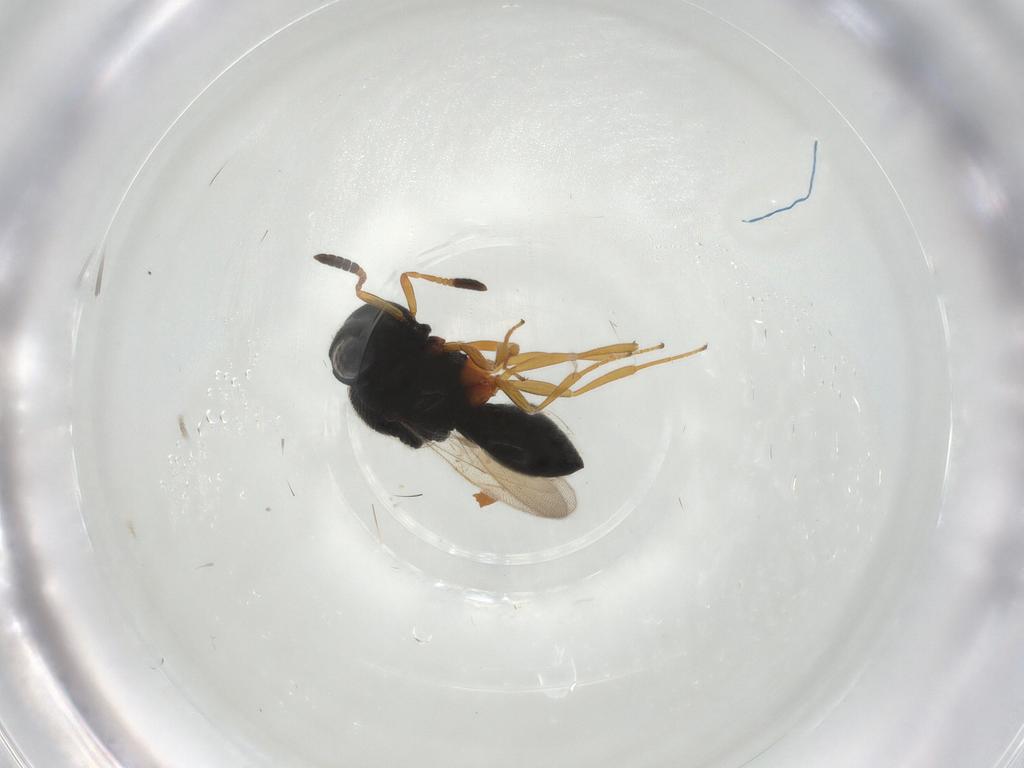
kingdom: Animalia
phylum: Arthropoda
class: Insecta
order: Hymenoptera
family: Scelionidae
